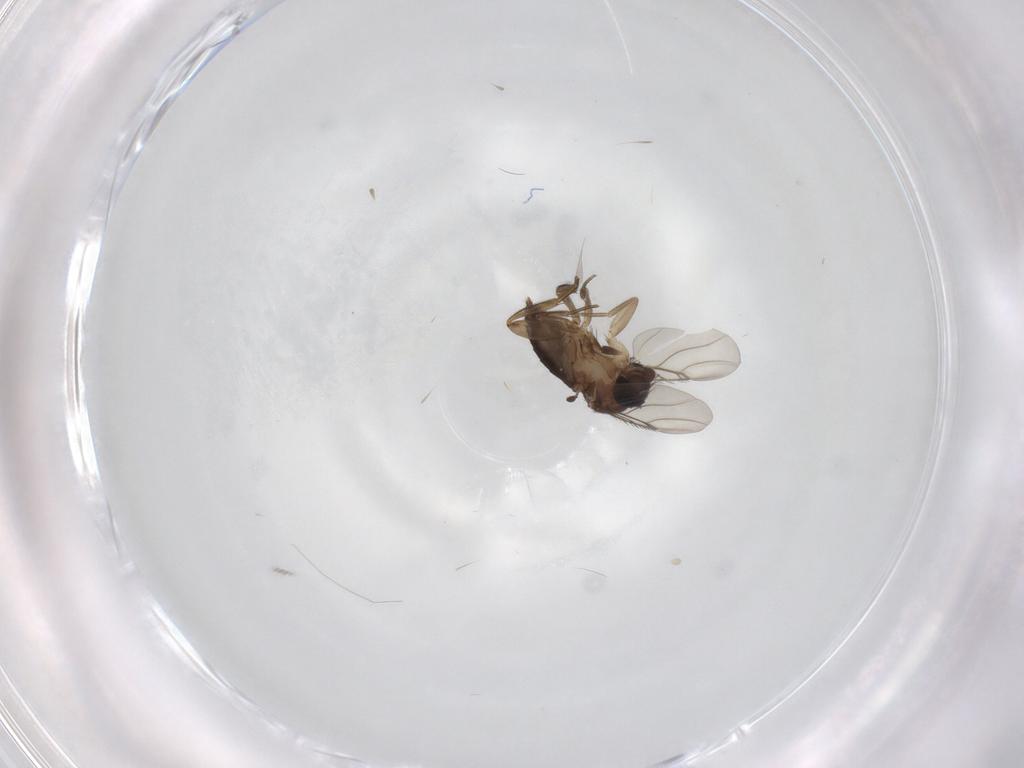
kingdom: Animalia
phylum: Arthropoda
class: Insecta
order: Diptera
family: Phoridae
